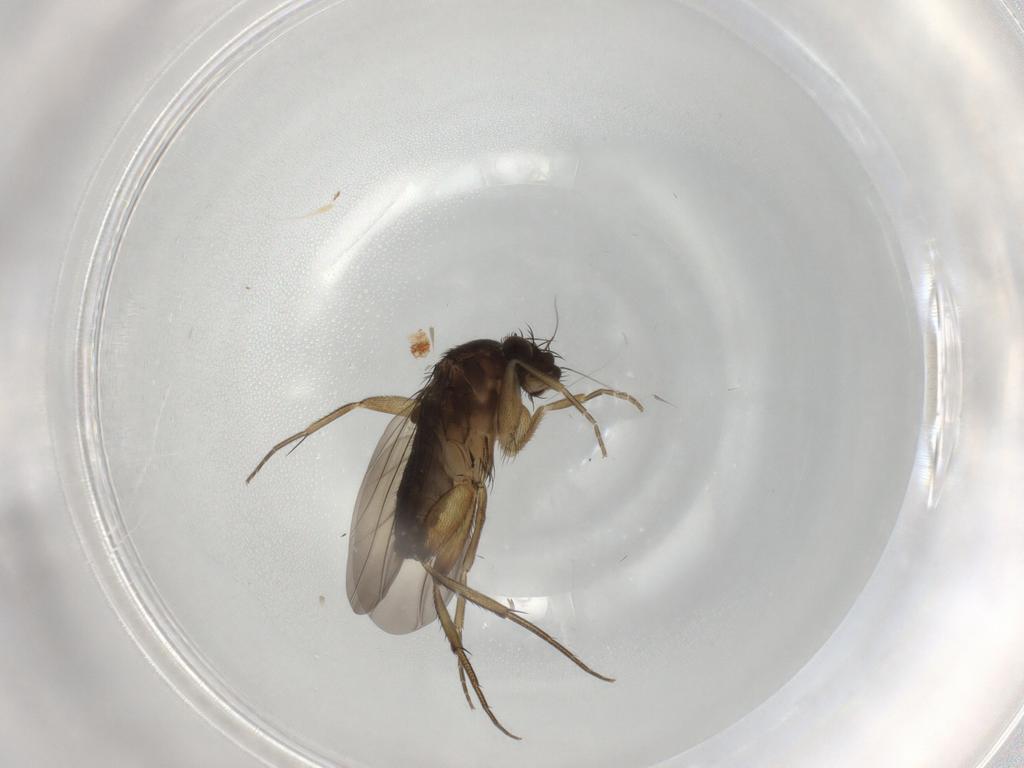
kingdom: Animalia
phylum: Arthropoda
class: Insecta
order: Diptera
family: Phoridae
